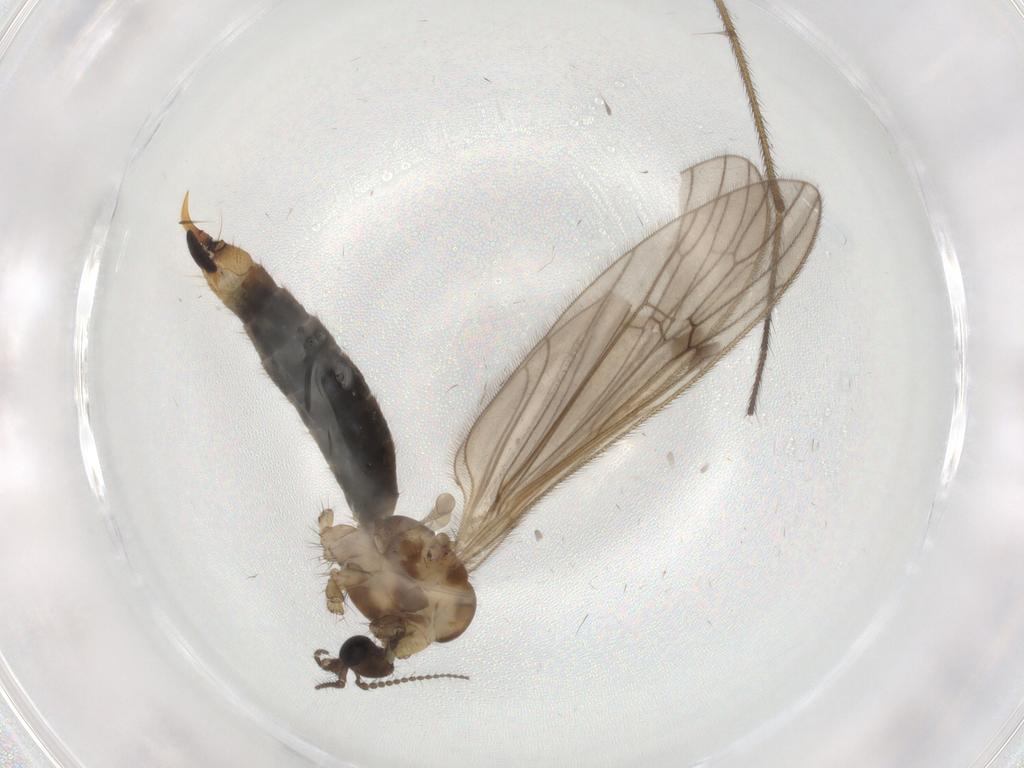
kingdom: Animalia
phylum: Arthropoda
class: Insecta
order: Diptera
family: Limoniidae
